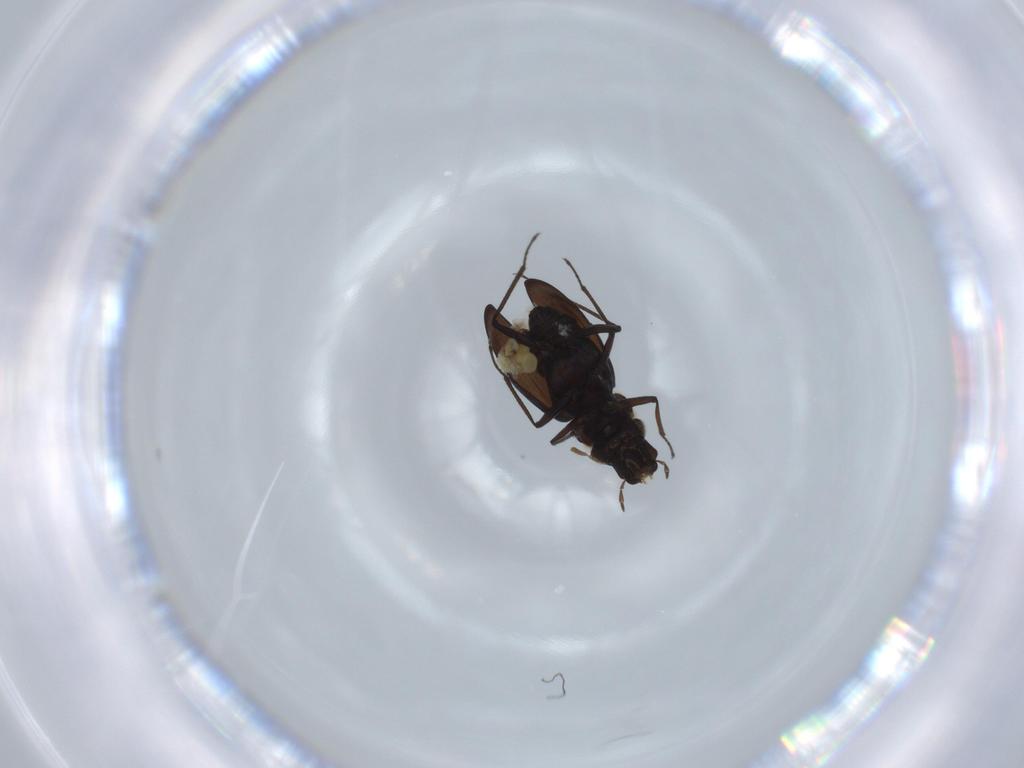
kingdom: Animalia
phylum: Arthropoda
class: Insecta
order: Coleoptera
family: Hydraenidae
